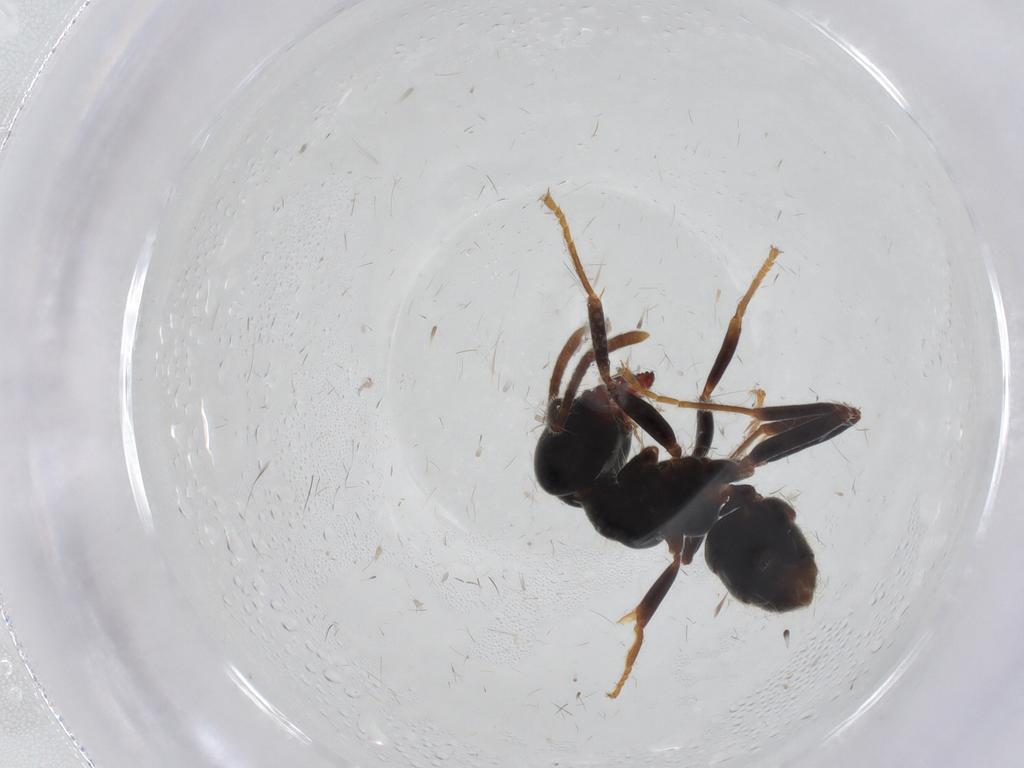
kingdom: Animalia
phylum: Arthropoda
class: Insecta
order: Hymenoptera
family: Formicidae
